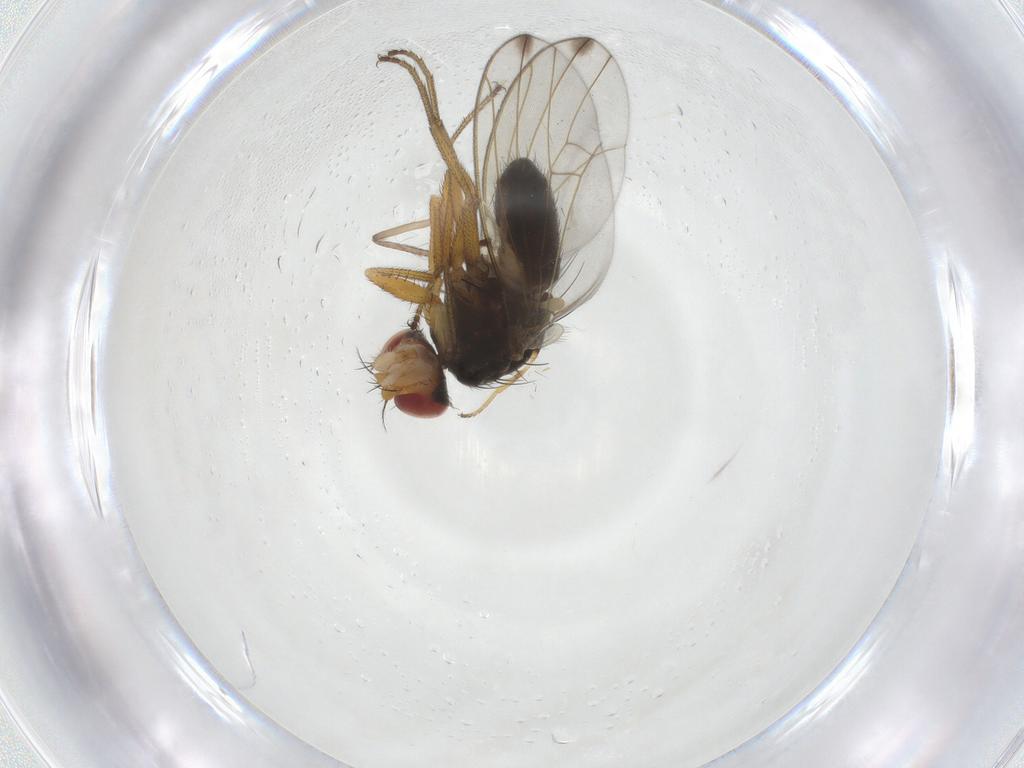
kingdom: Animalia
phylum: Arthropoda
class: Insecta
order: Diptera
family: Drosophilidae
